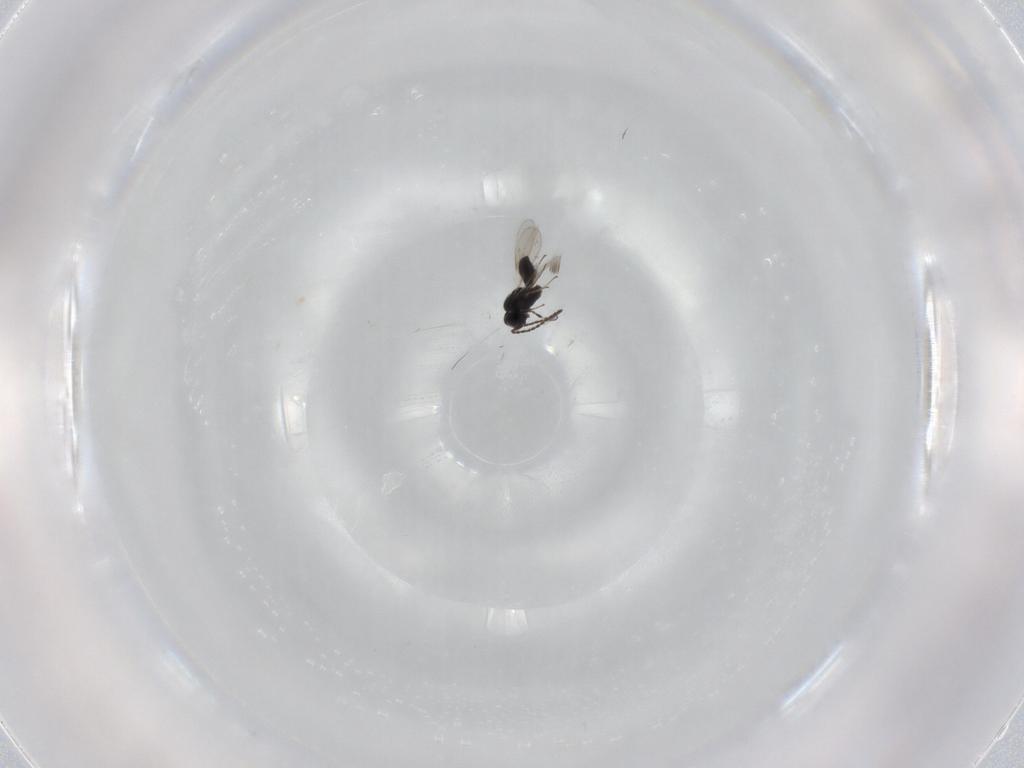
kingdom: Animalia
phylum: Arthropoda
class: Insecta
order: Hymenoptera
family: Scelionidae
